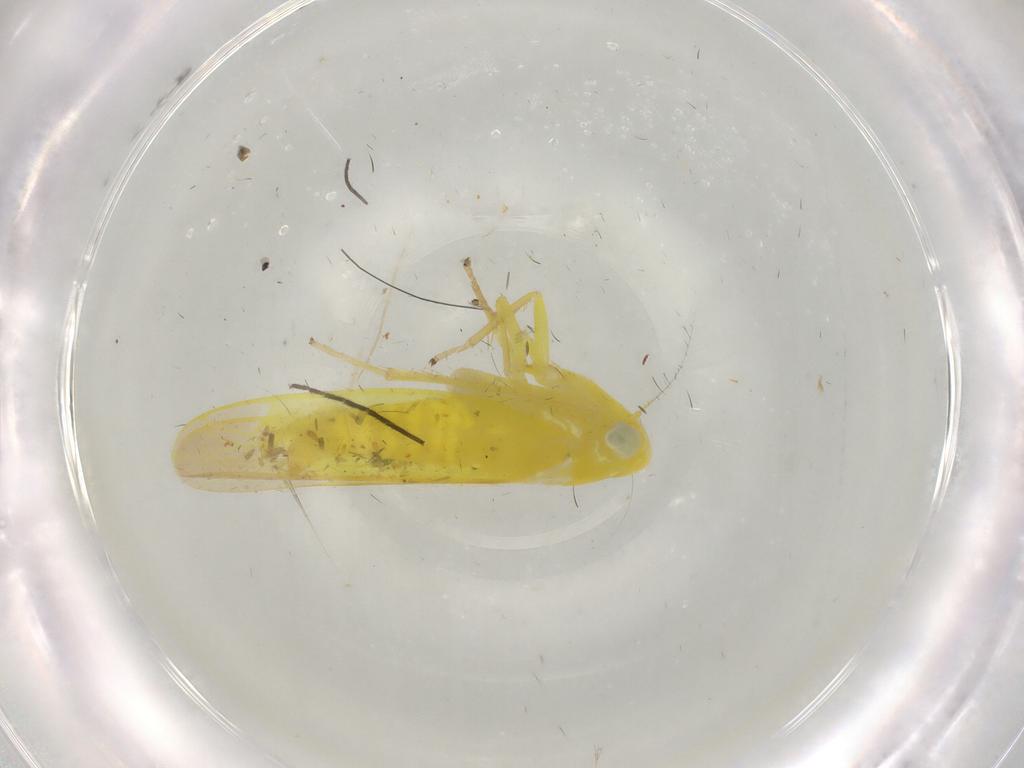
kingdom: Animalia
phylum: Arthropoda
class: Insecta
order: Hemiptera
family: Cicadellidae
